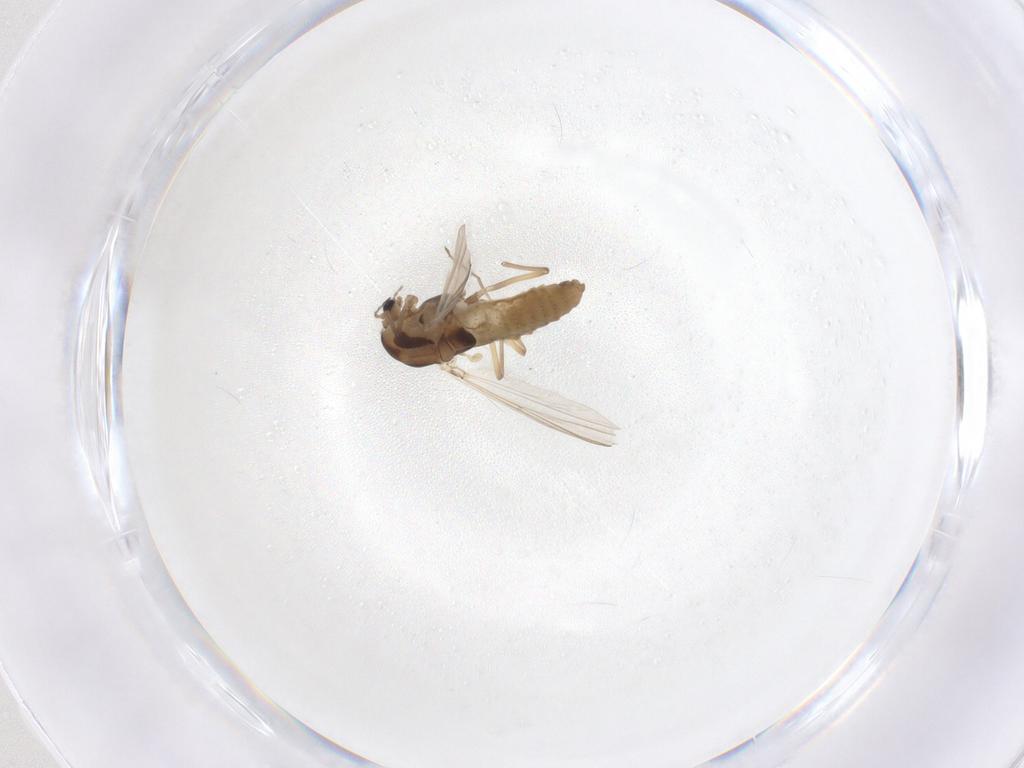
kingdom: Animalia
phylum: Arthropoda
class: Insecta
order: Diptera
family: Chironomidae
